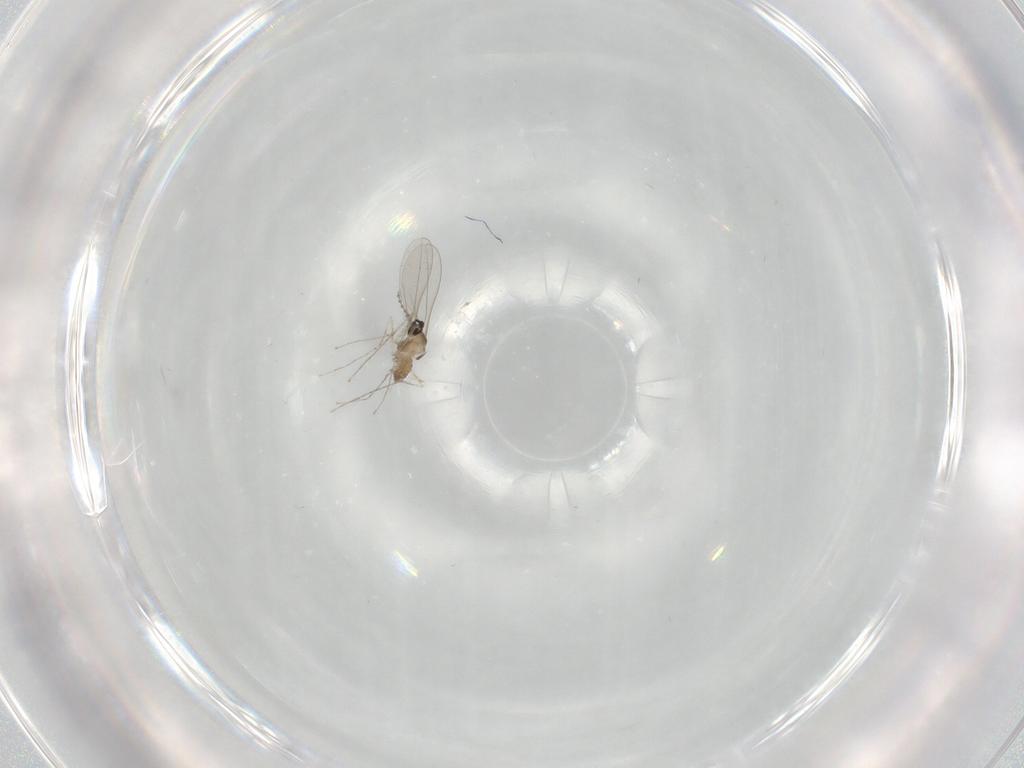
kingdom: Animalia
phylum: Arthropoda
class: Insecta
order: Diptera
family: Cecidomyiidae
